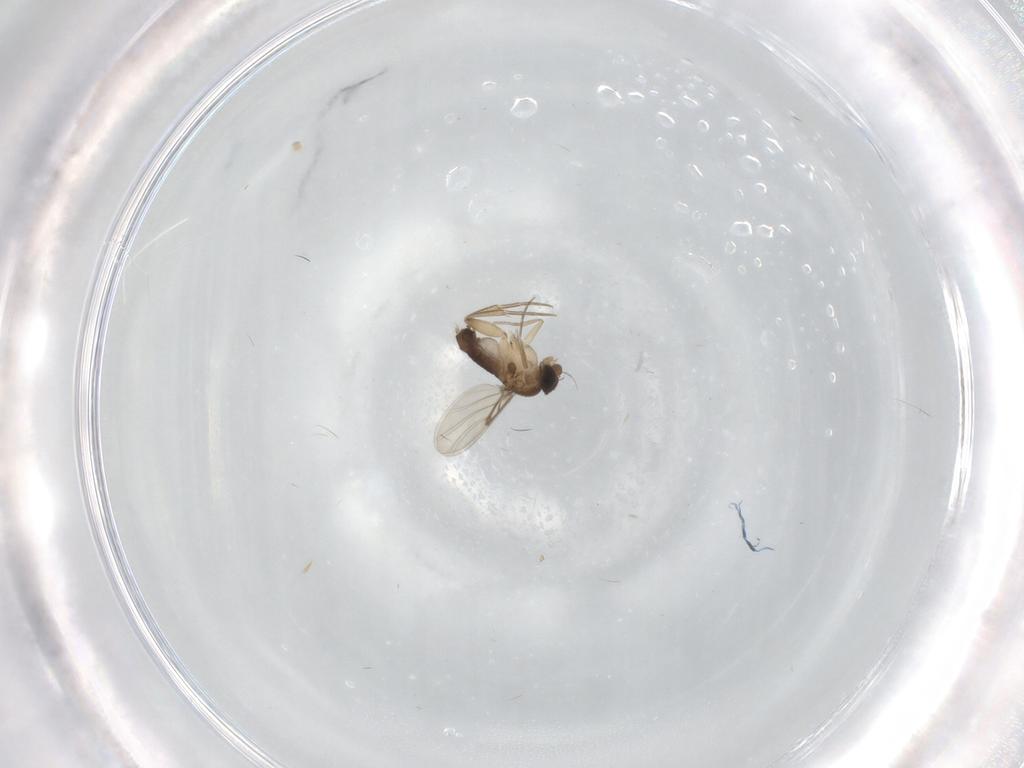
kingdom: Animalia
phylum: Arthropoda
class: Insecta
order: Diptera
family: Phoridae
